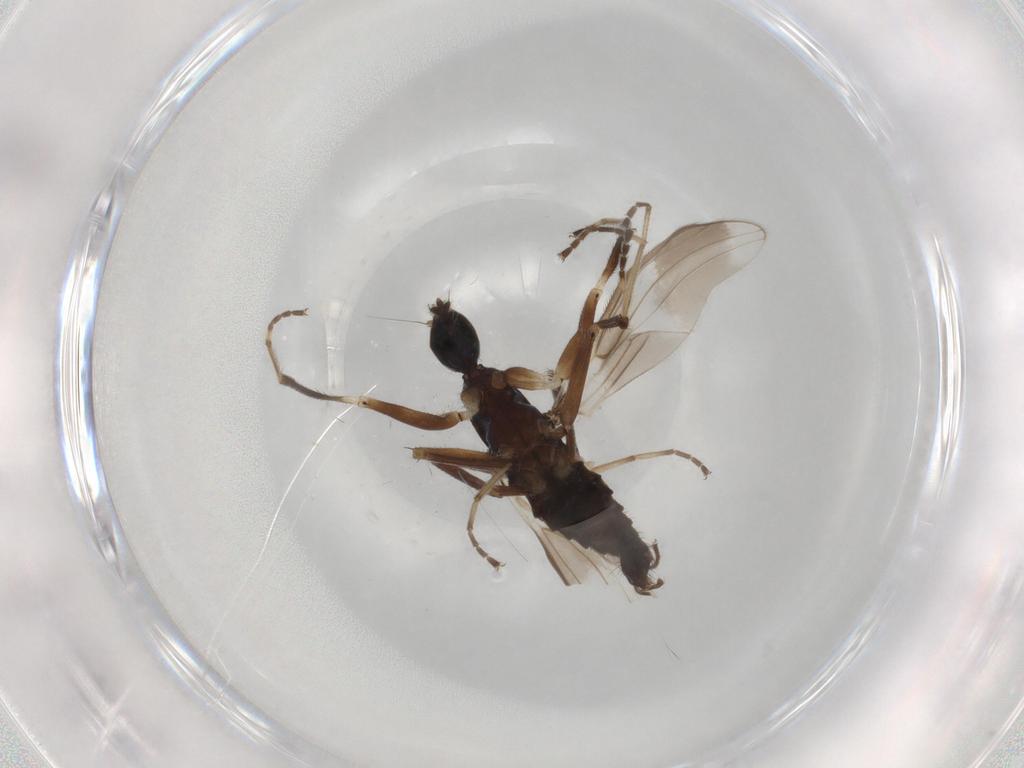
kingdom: Animalia
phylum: Arthropoda
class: Insecta
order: Diptera
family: Hybotidae
